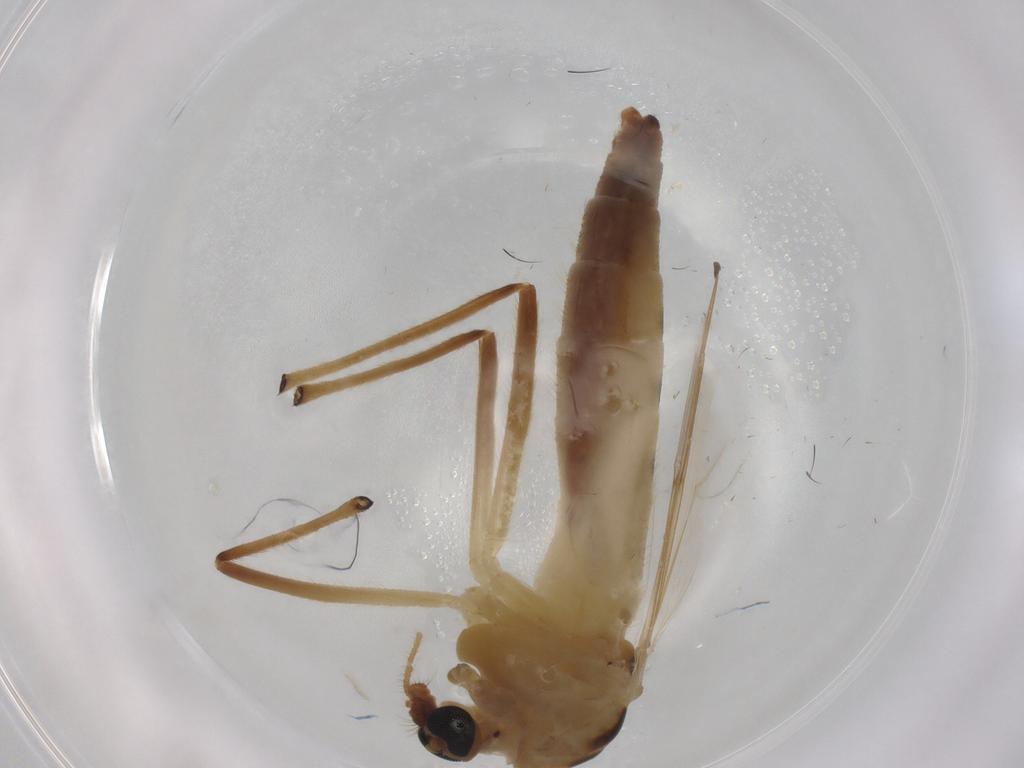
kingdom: Animalia
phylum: Arthropoda
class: Insecta
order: Diptera
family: Chironomidae
